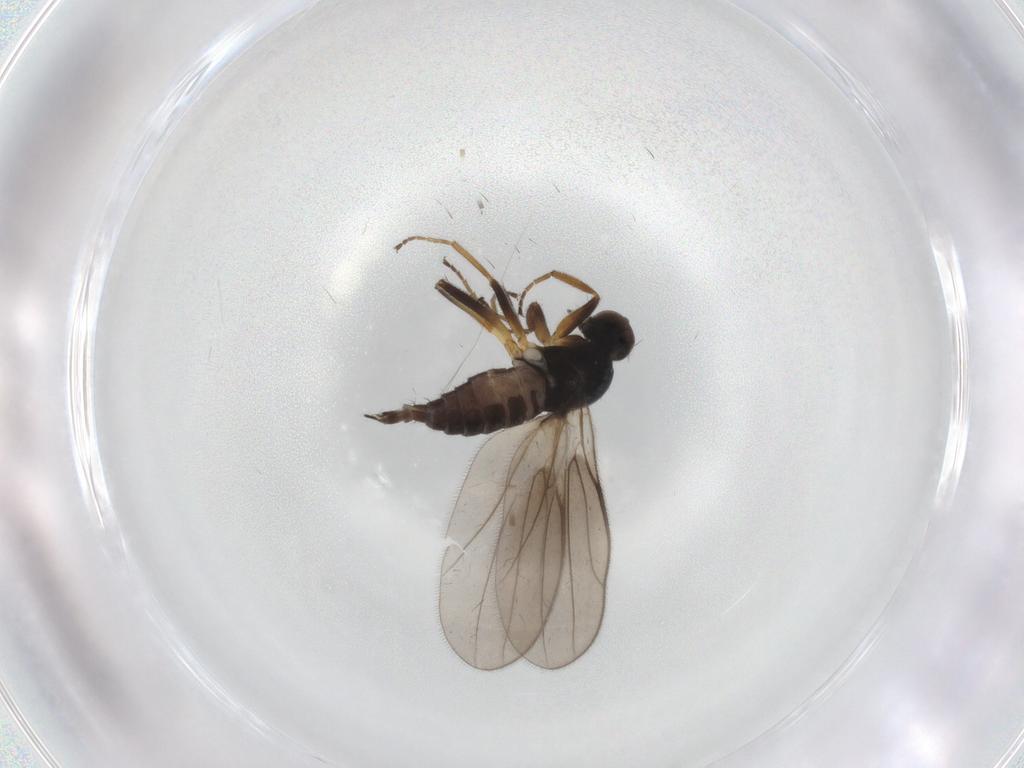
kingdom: Animalia
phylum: Arthropoda
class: Insecta
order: Diptera
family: Hybotidae
